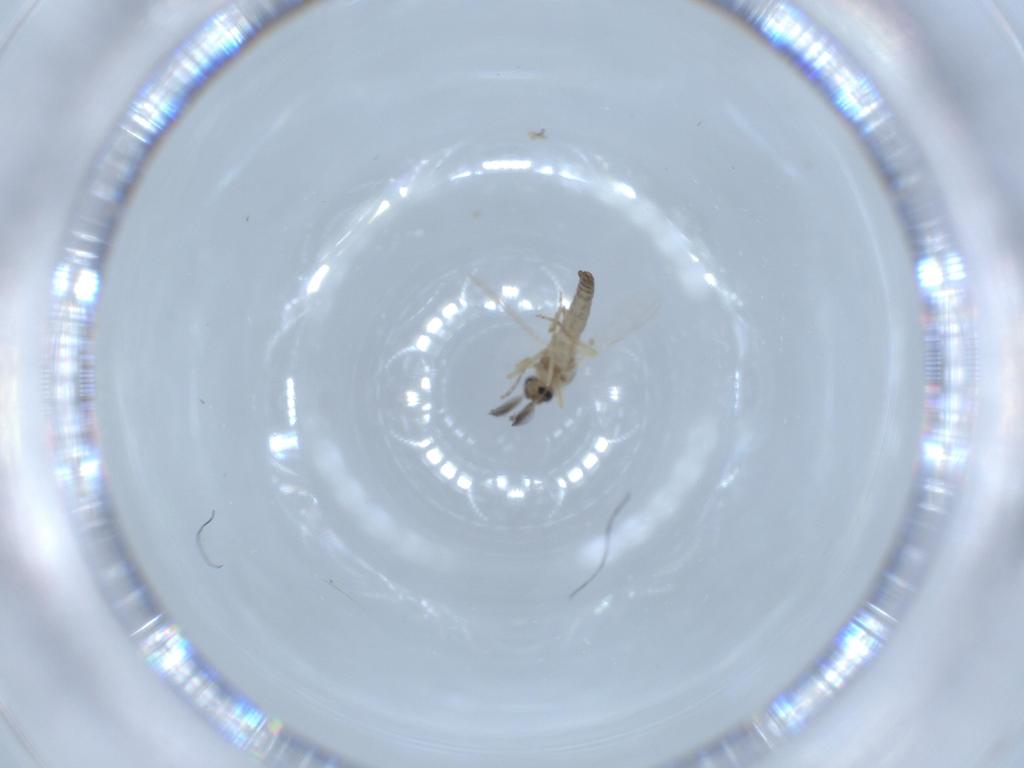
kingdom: Animalia
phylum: Arthropoda
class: Insecta
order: Diptera
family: Ceratopogonidae
